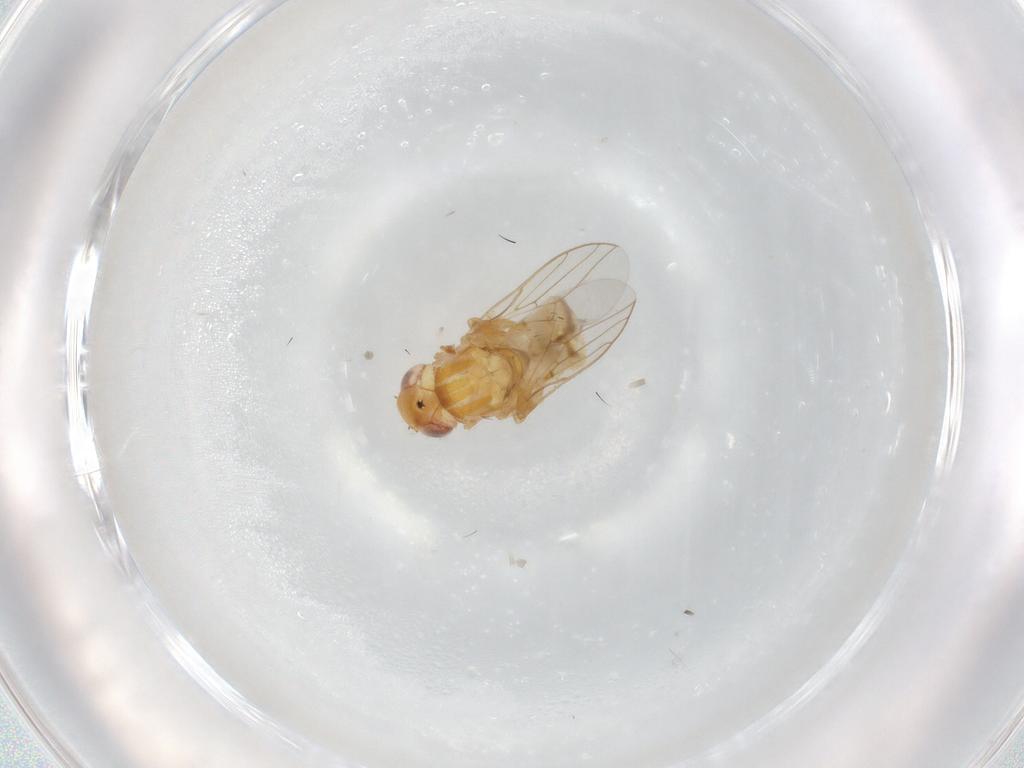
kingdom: Animalia
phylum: Arthropoda
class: Insecta
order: Diptera
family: Chloropidae
